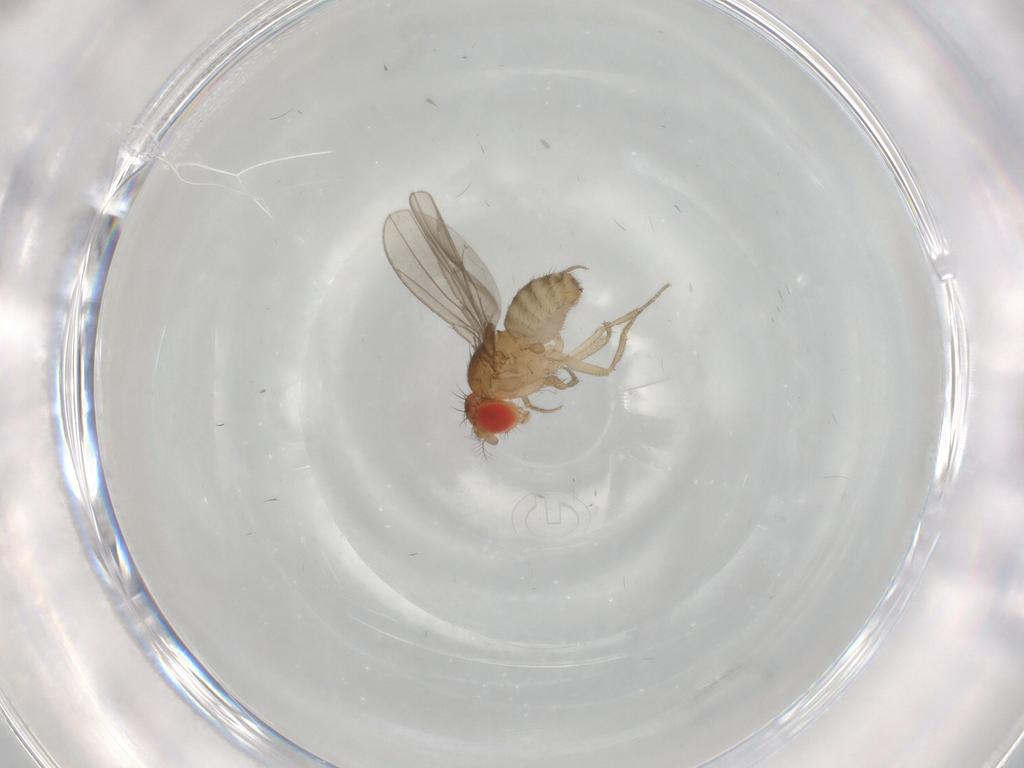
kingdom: Animalia
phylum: Arthropoda
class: Insecta
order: Diptera
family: Drosophilidae
